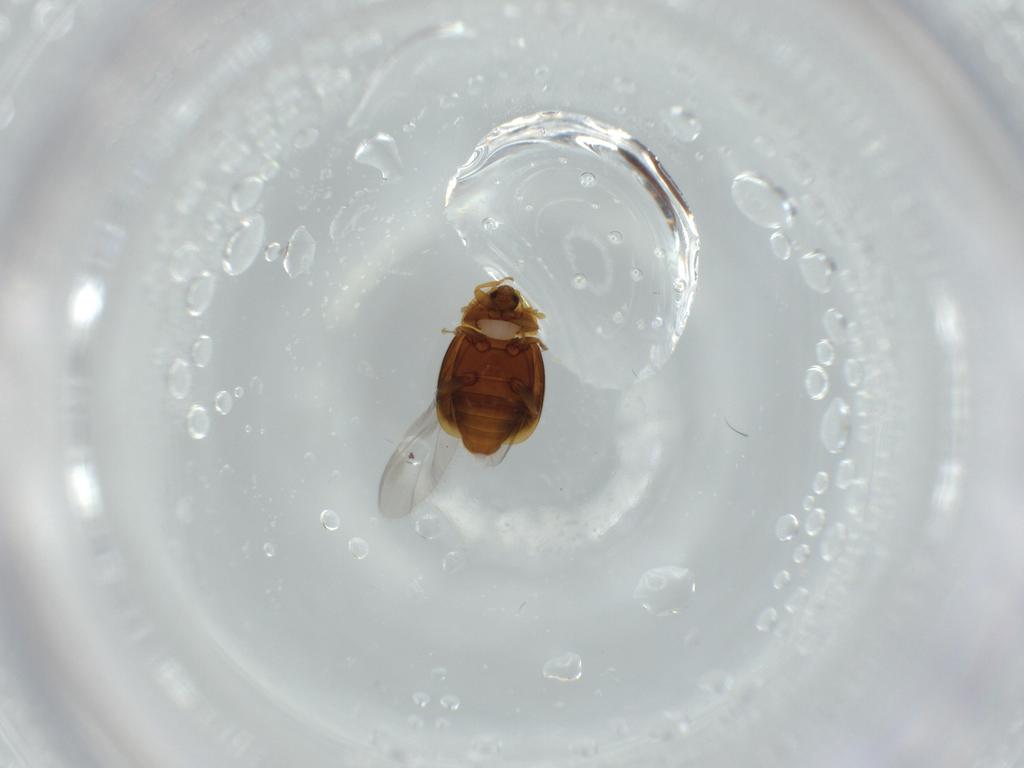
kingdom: Animalia
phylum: Arthropoda
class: Insecta
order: Coleoptera
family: Corylophidae
